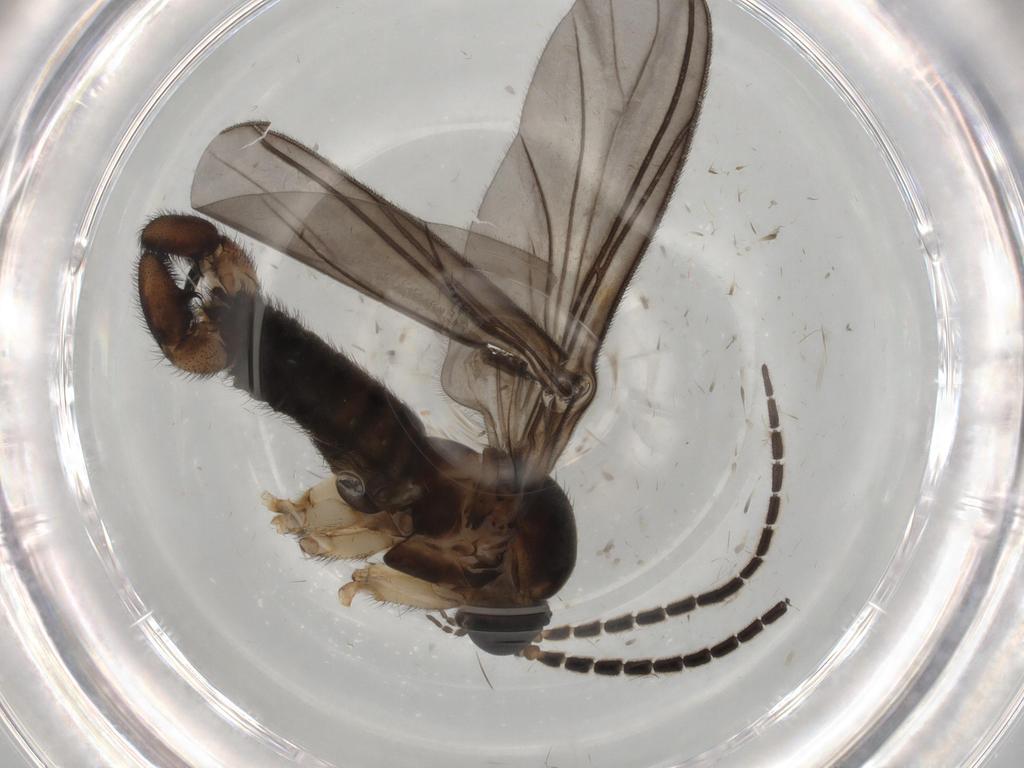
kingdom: Animalia
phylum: Arthropoda
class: Insecta
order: Diptera
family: Sciaridae
